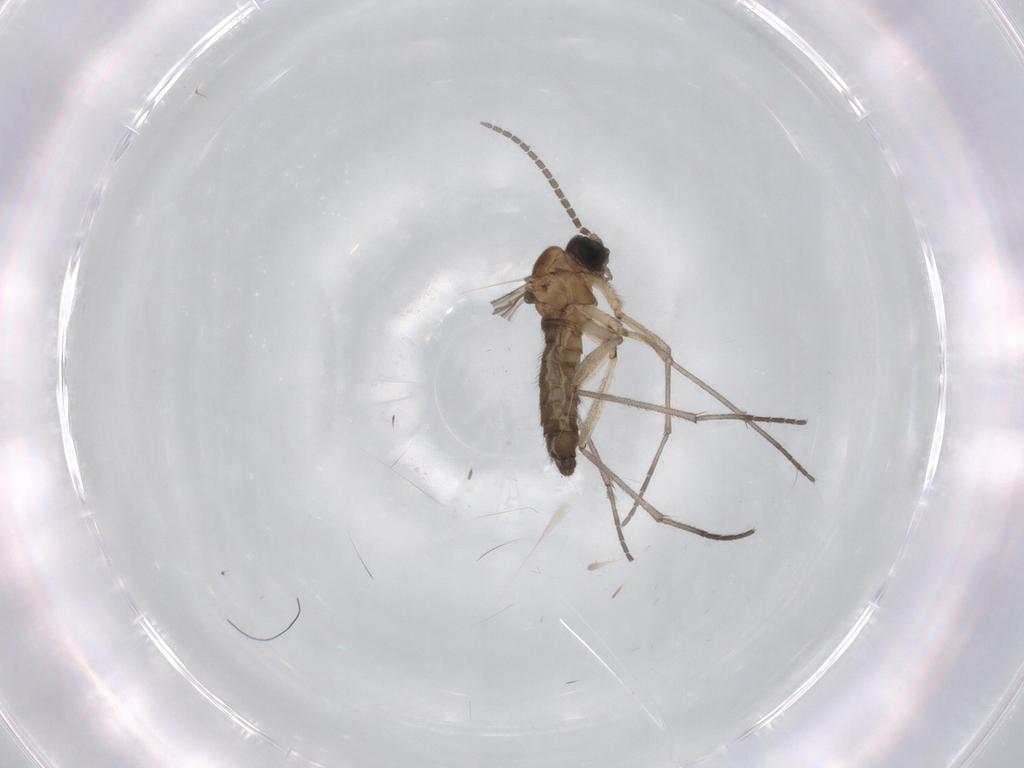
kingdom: Animalia
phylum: Arthropoda
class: Insecta
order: Diptera
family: Sciaridae
